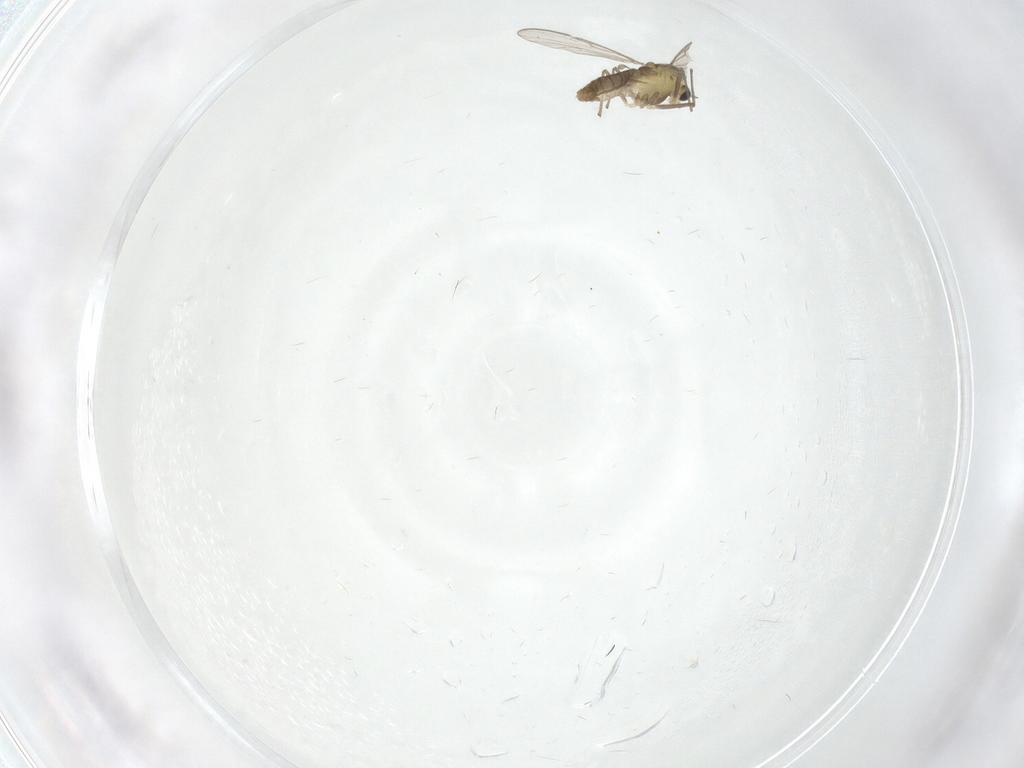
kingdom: Animalia
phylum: Arthropoda
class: Insecta
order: Diptera
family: Chironomidae
